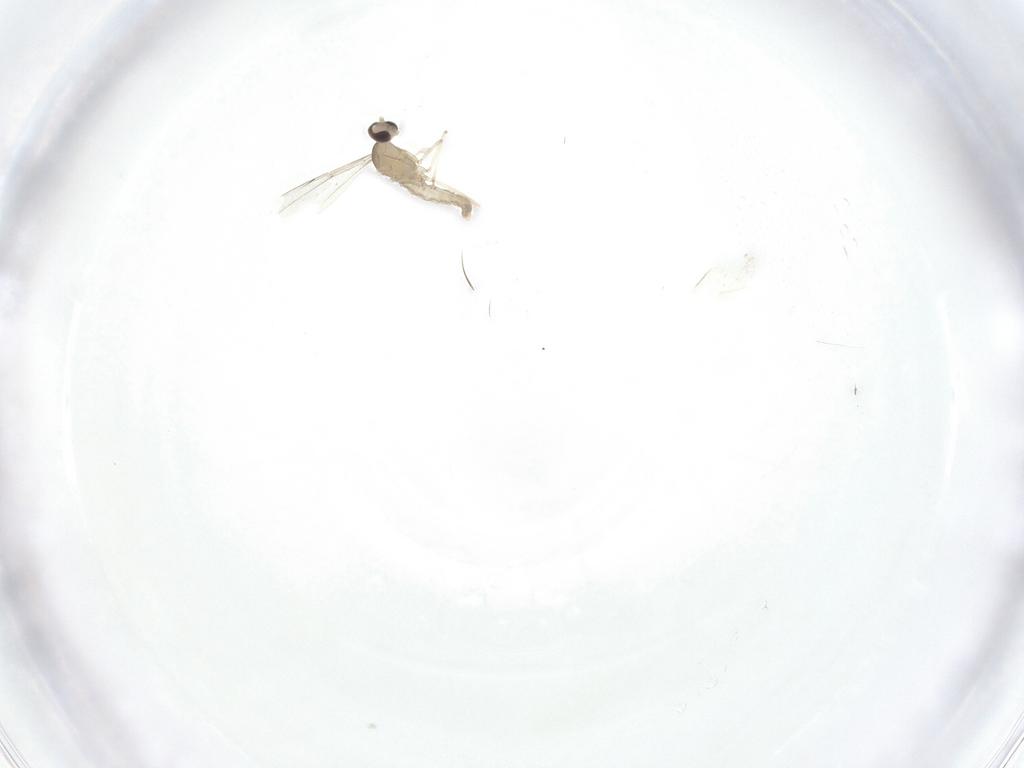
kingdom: Animalia
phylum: Arthropoda
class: Insecta
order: Diptera
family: Cecidomyiidae
